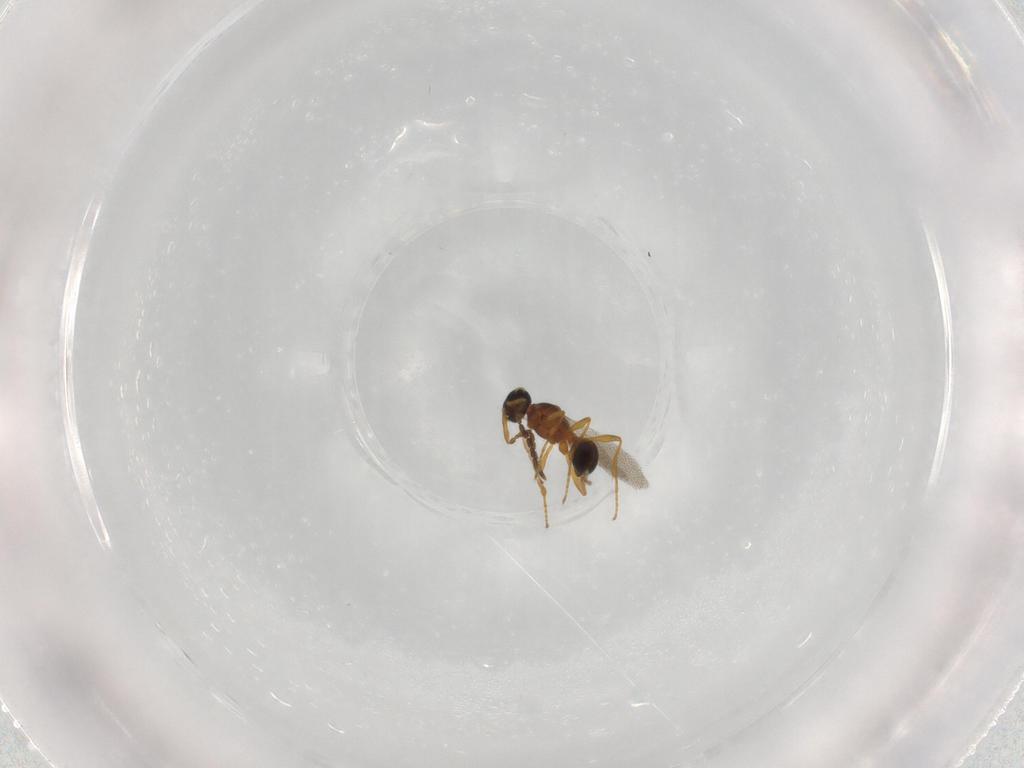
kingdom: Animalia
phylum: Arthropoda
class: Insecta
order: Hymenoptera
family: Platygastridae
